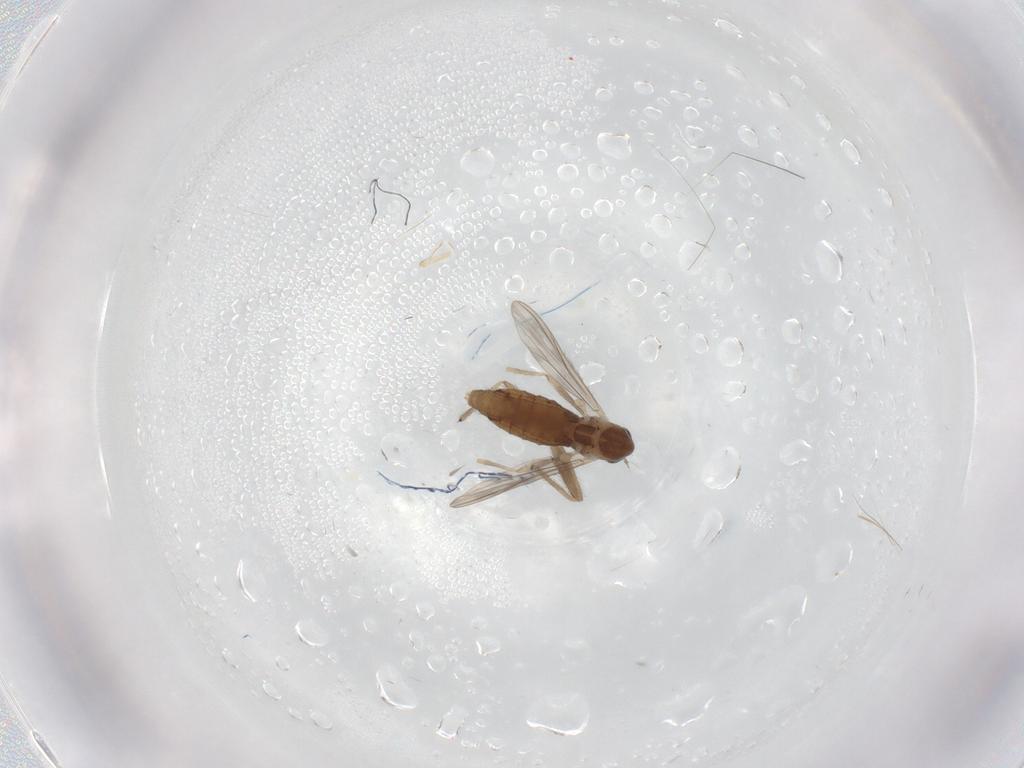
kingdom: Animalia
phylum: Arthropoda
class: Insecta
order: Diptera
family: Chironomidae
